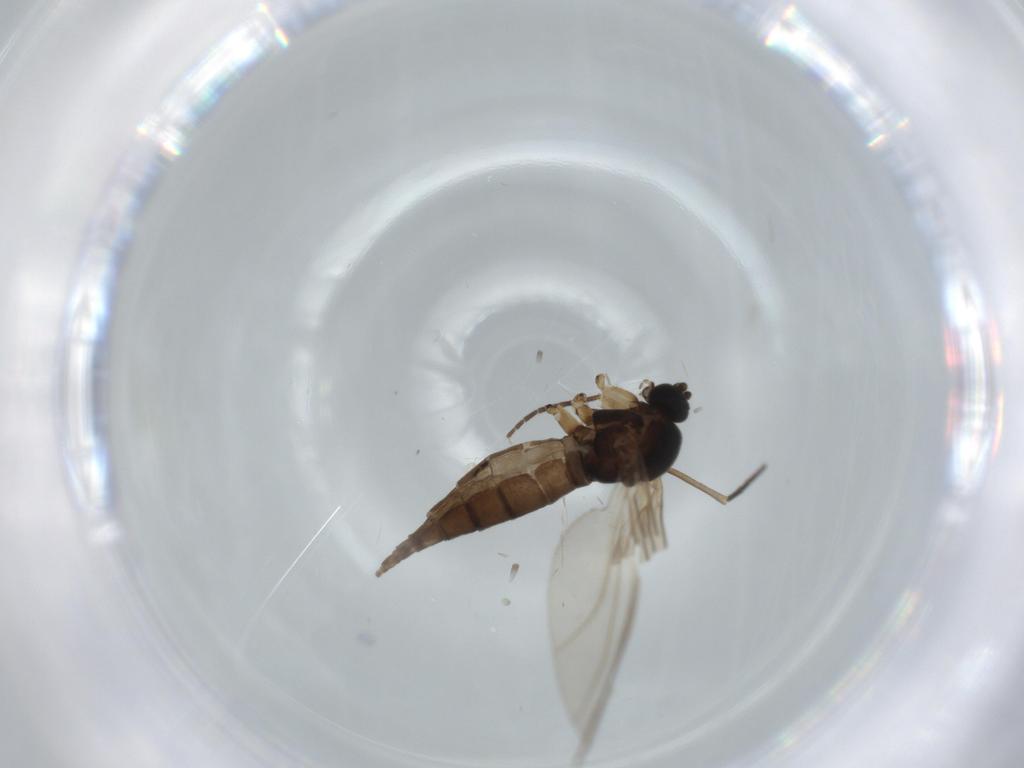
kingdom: Animalia
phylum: Arthropoda
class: Insecta
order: Diptera
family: Sciaridae
